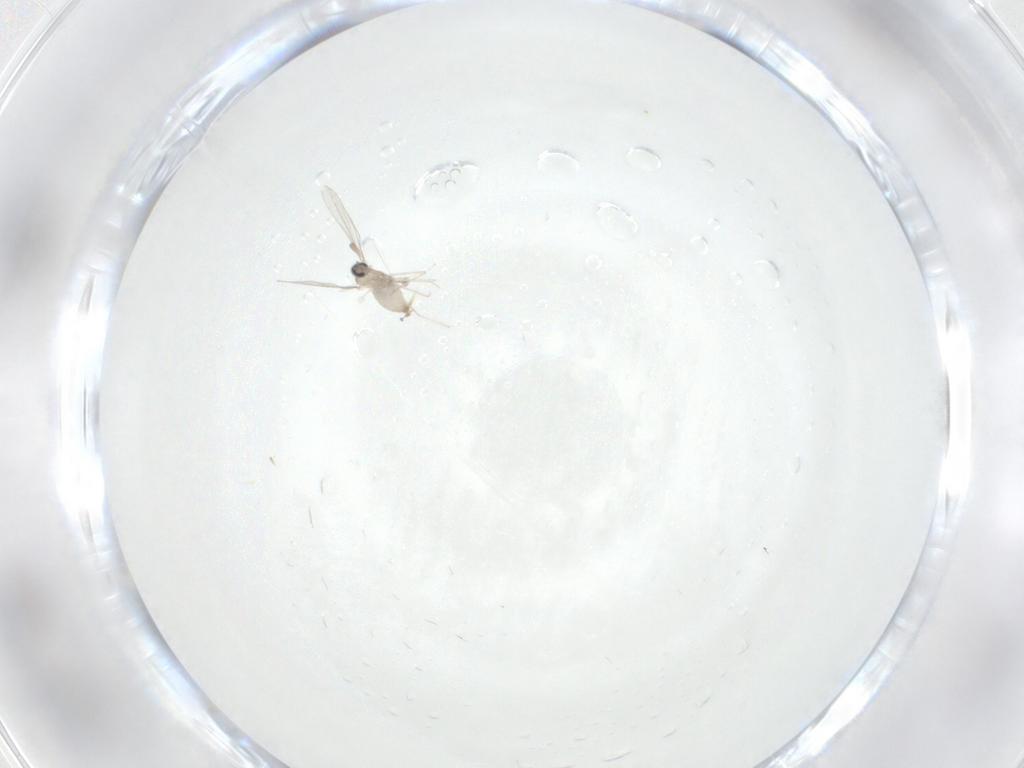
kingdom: Animalia
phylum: Arthropoda
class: Insecta
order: Diptera
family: Cecidomyiidae
